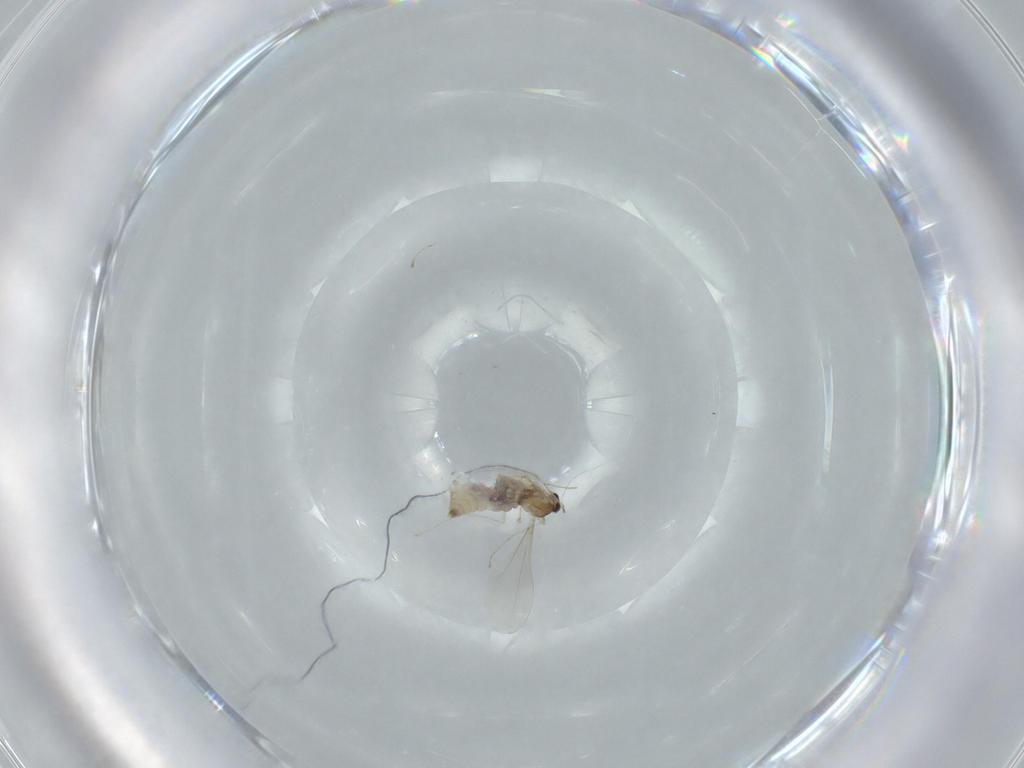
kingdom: Animalia
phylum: Arthropoda
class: Insecta
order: Diptera
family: Cecidomyiidae
